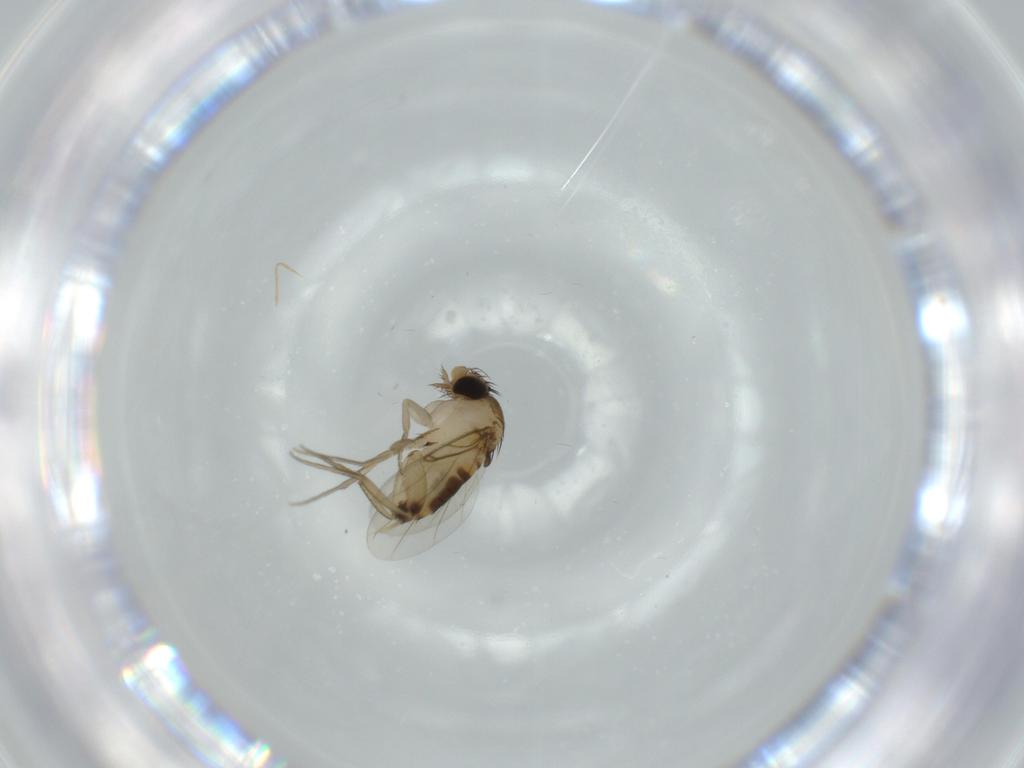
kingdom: Animalia
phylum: Arthropoda
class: Insecta
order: Diptera
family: Phoridae
